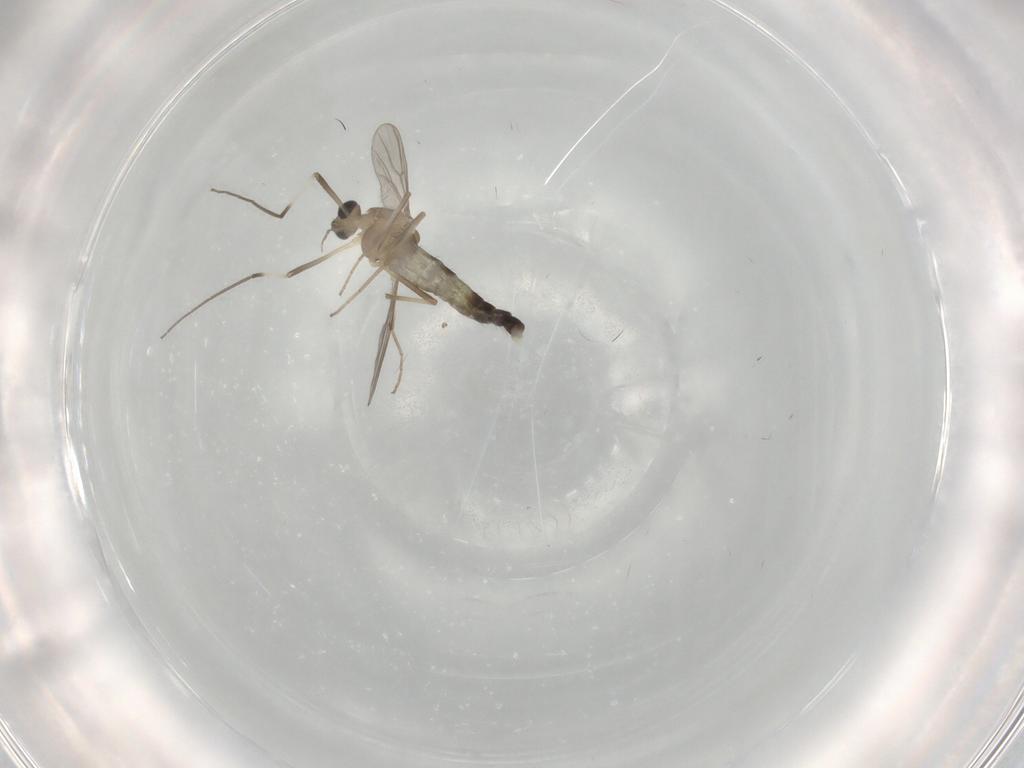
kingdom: Animalia
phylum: Arthropoda
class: Insecta
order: Diptera
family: Chironomidae
